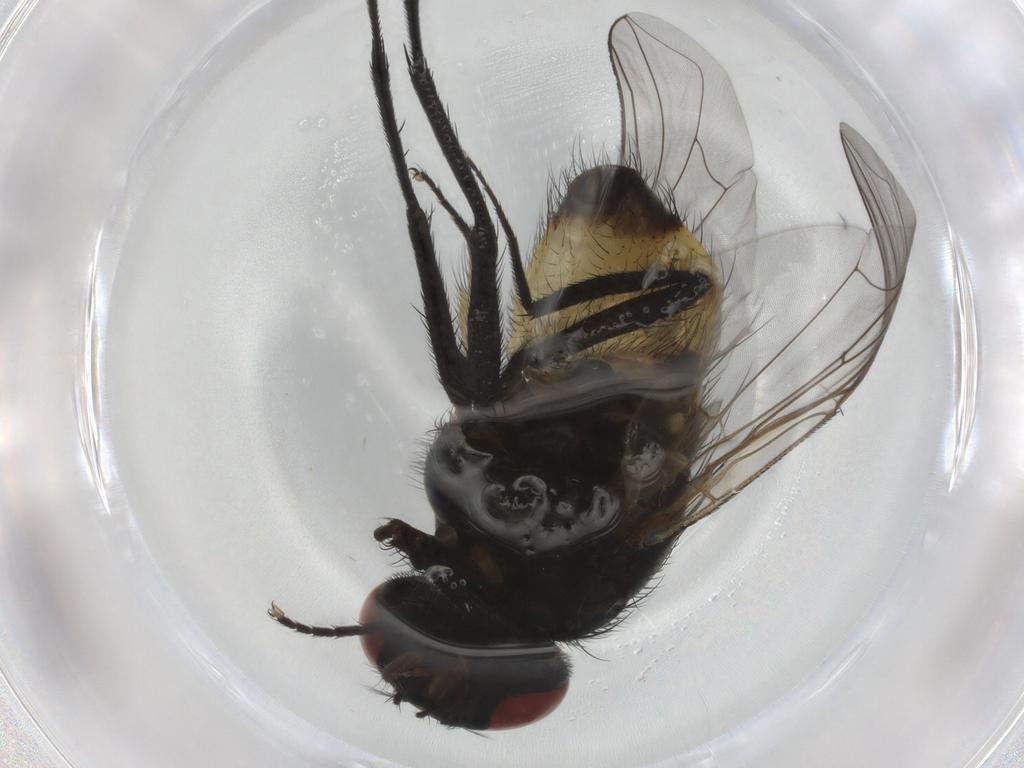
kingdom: Animalia
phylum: Arthropoda
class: Insecta
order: Diptera
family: Muscidae
